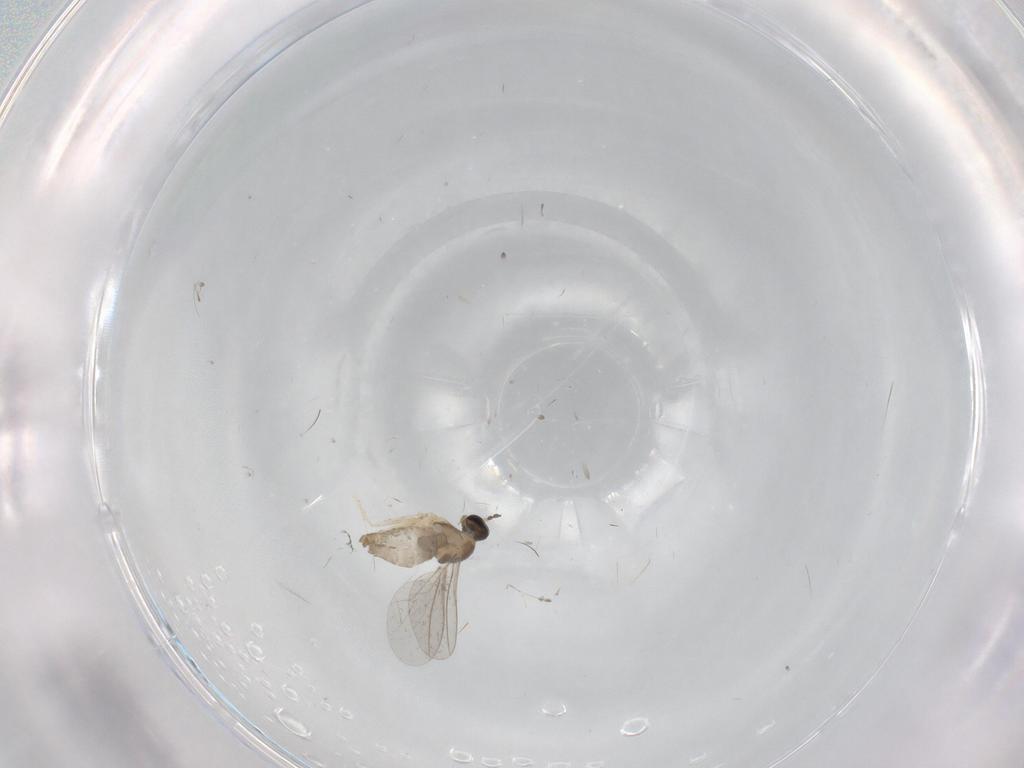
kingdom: Animalia
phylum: Arthropoda
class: Insecta
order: Diptera
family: Cecidomyiidae
